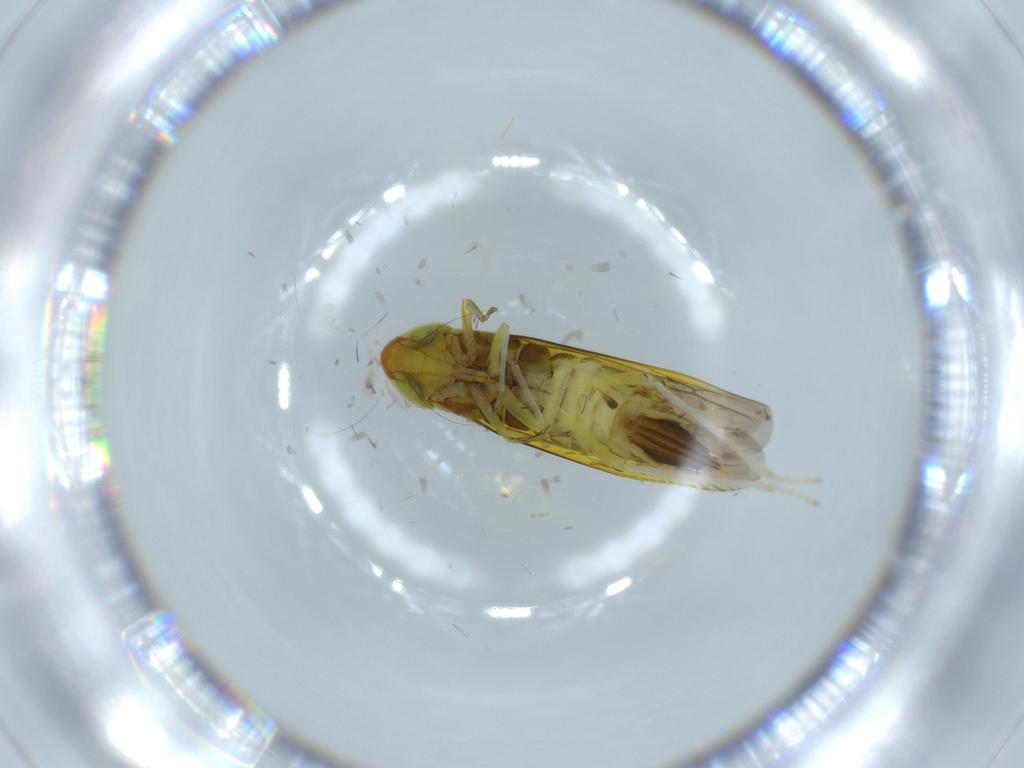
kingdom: Animalia
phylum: Arthropoda
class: Insecta
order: Hemiptera
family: Cicadellidae
